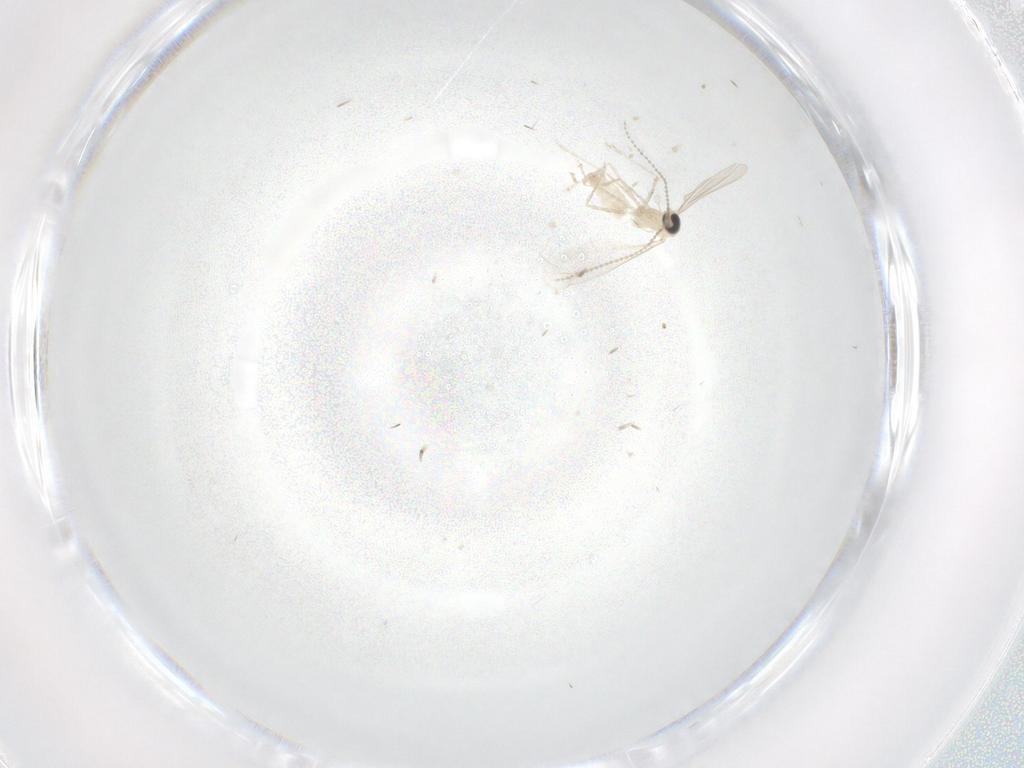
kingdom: Animalia
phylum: Arthropoda
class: Insecta
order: Diptera
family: Cecidomyiidae
